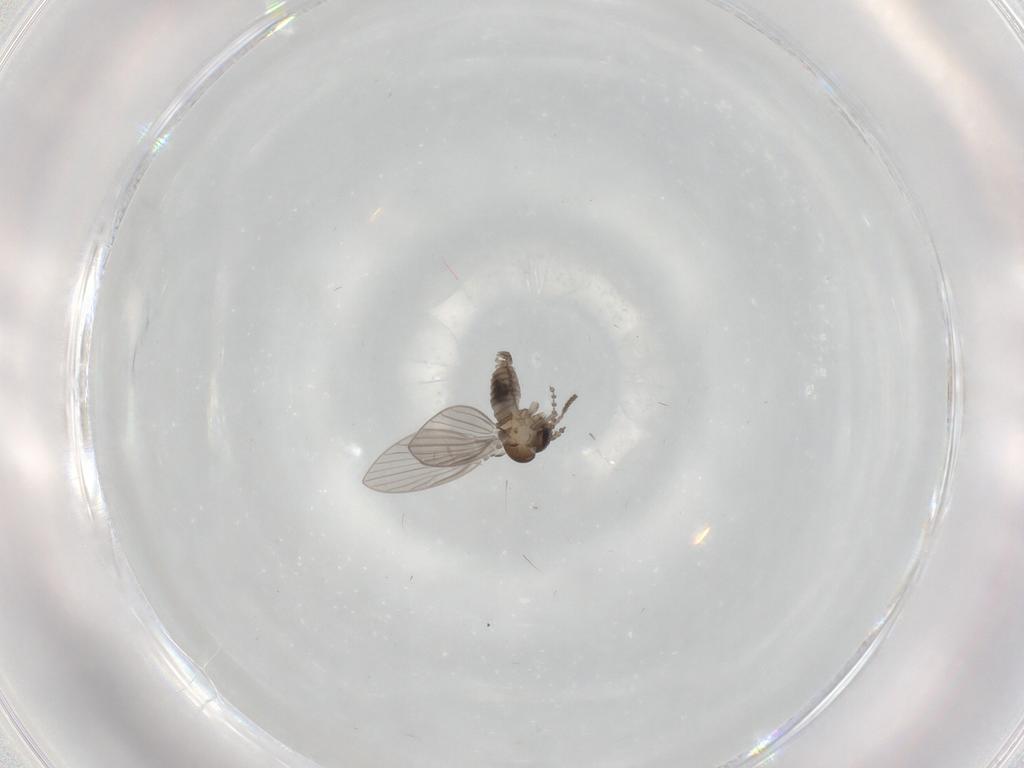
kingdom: Animalia
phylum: Arthropoda
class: Insecta
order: Diptera
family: Psychodidae
